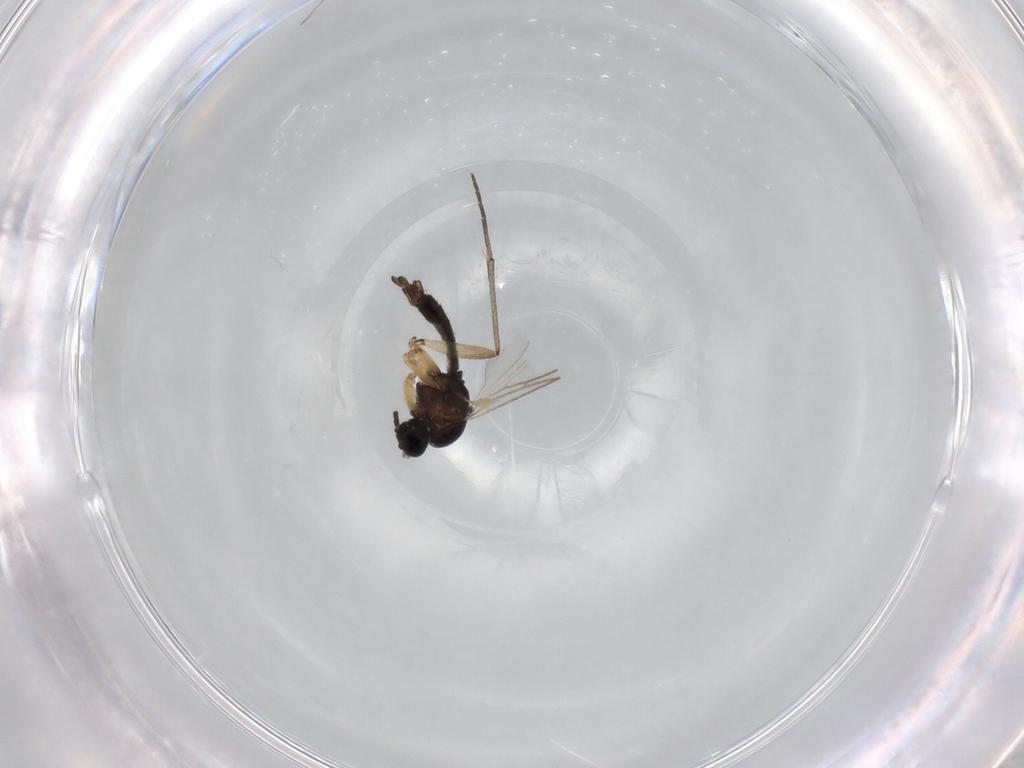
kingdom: Animalia
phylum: Arthropoda
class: Insecta
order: Diptera
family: Sciaridae
